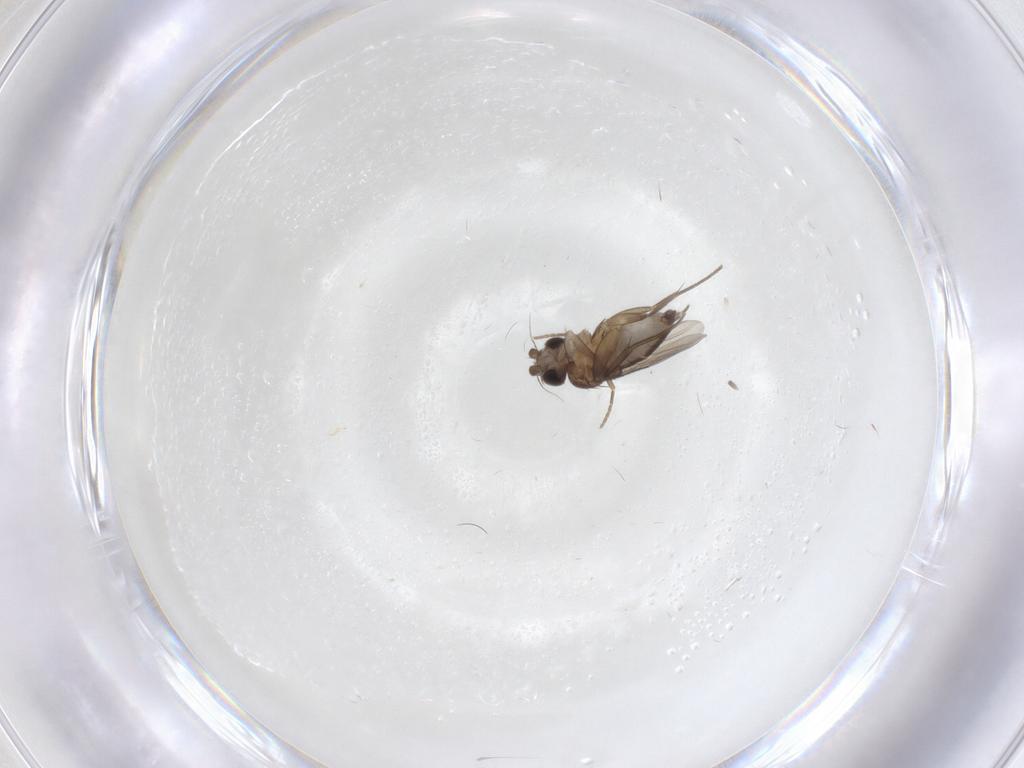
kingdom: Animalia
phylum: Arthropoda
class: Insecta
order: Diptera
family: Phoridae
